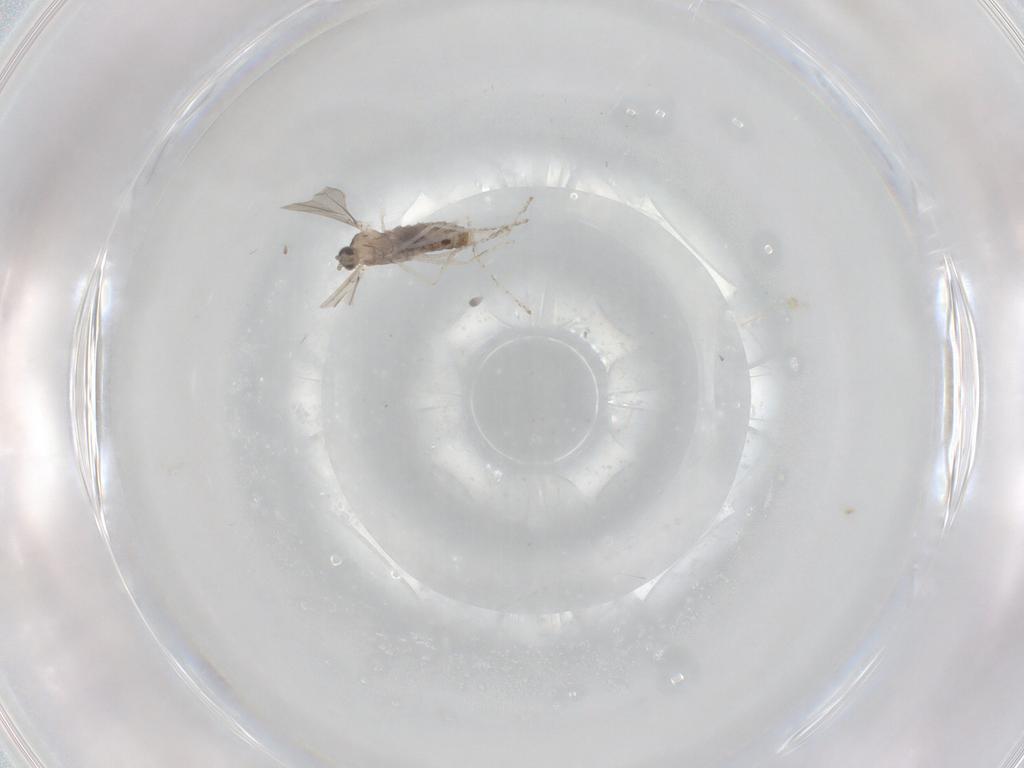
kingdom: Animalia
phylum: Arthropoda
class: Insecta
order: Diptera
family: Cecidomyiidae
